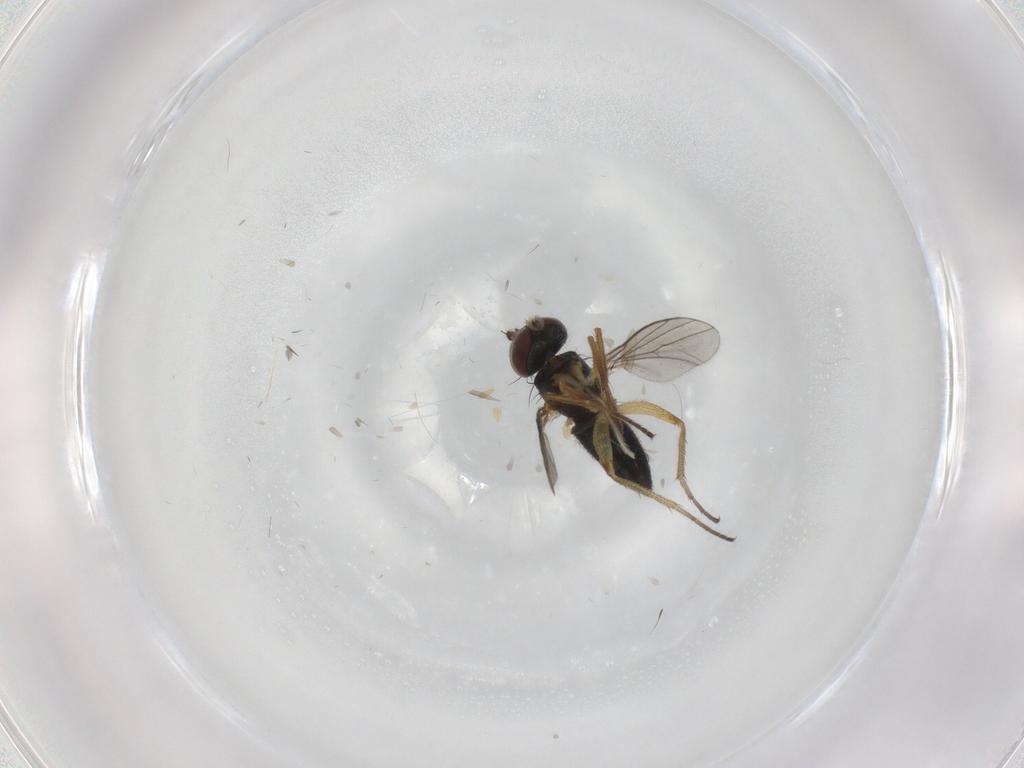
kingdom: Animalia
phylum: Arthropoda
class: Insecta
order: Diptera
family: Dolichopodidae
